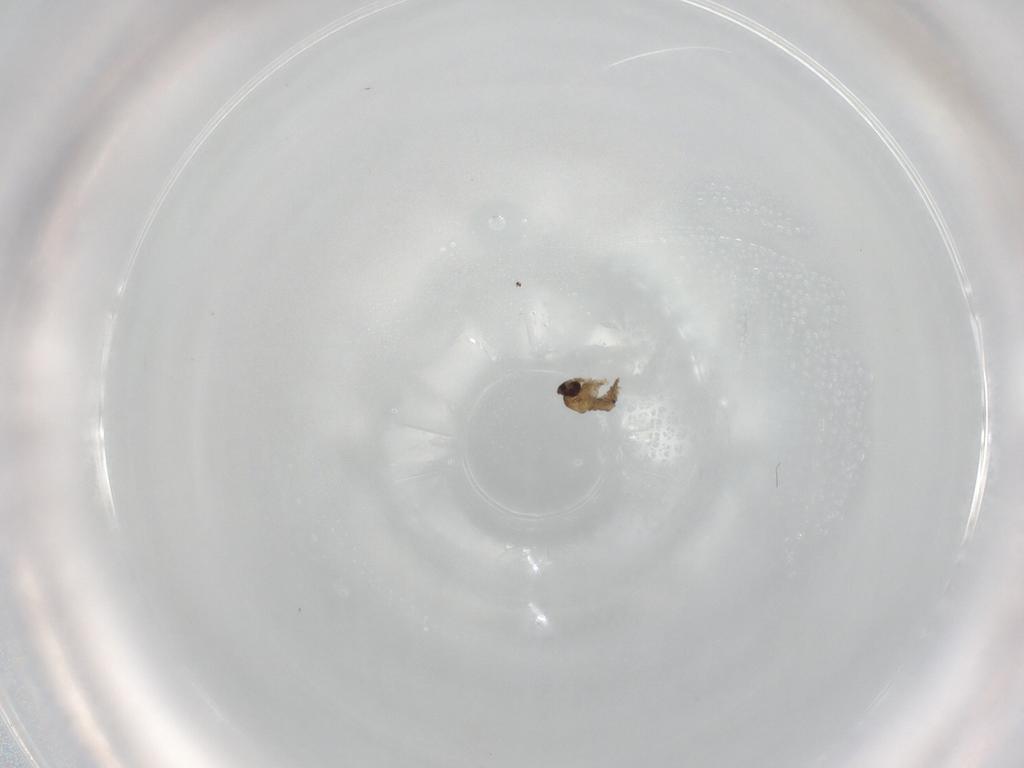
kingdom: Animalia
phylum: Arthropoda
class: Insecta
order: Diptera
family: Psychodidae
